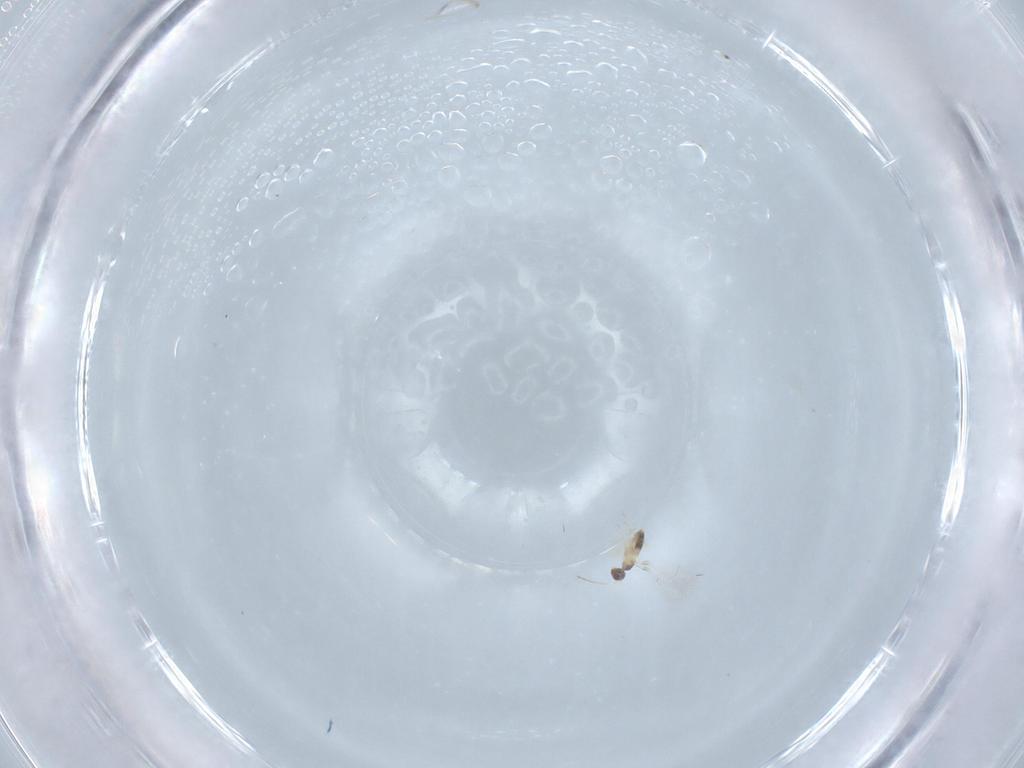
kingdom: Animalia
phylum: Arthropoda
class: Insecta
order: Hymenoptera
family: Mymaridae
